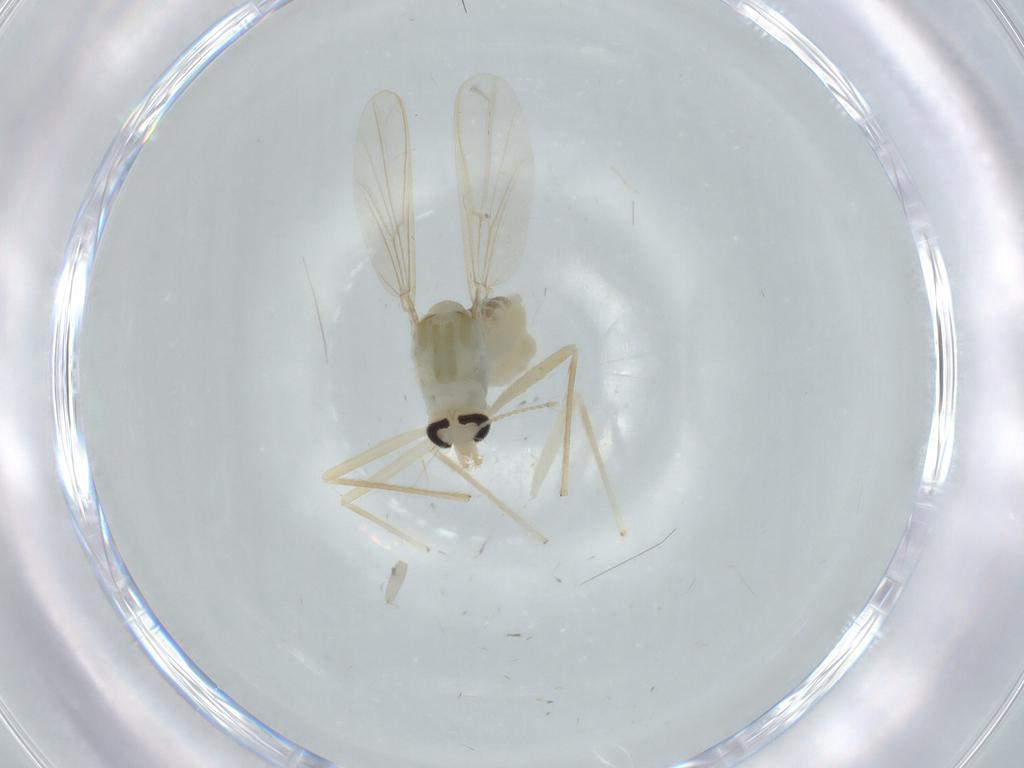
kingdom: Animalia
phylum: Arthropoda
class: Insecta
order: Diptera
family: Chironomidae
